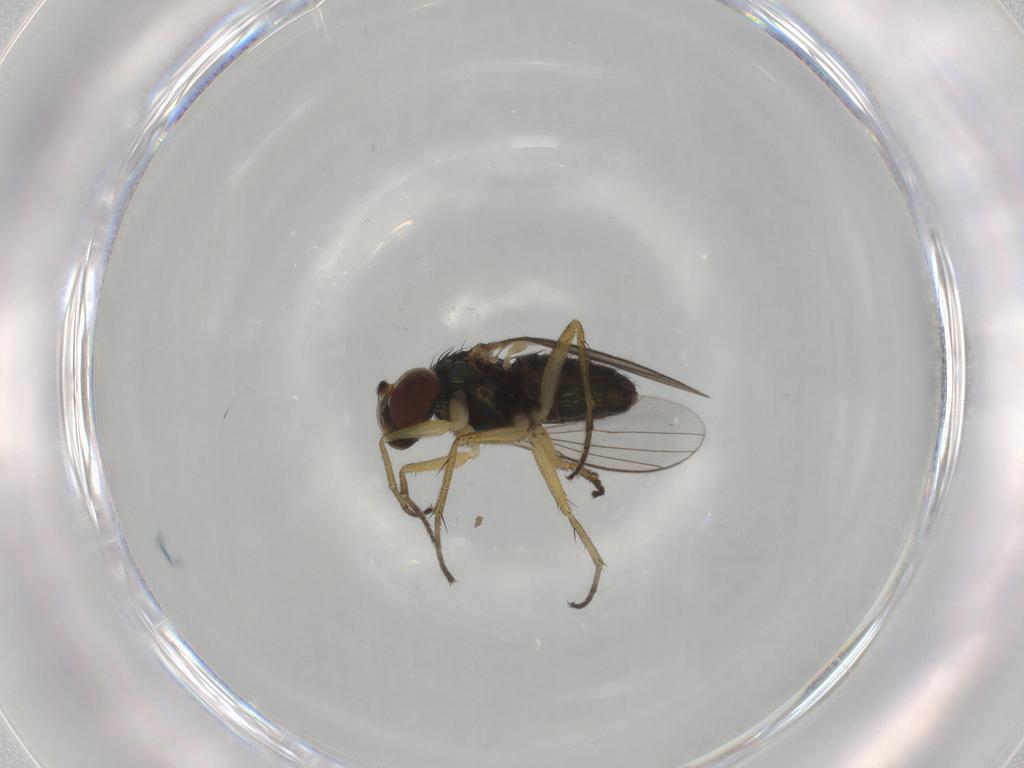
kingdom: Animalia
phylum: Arthropoda
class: Insecta
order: Diptera
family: Dolichopodidae
